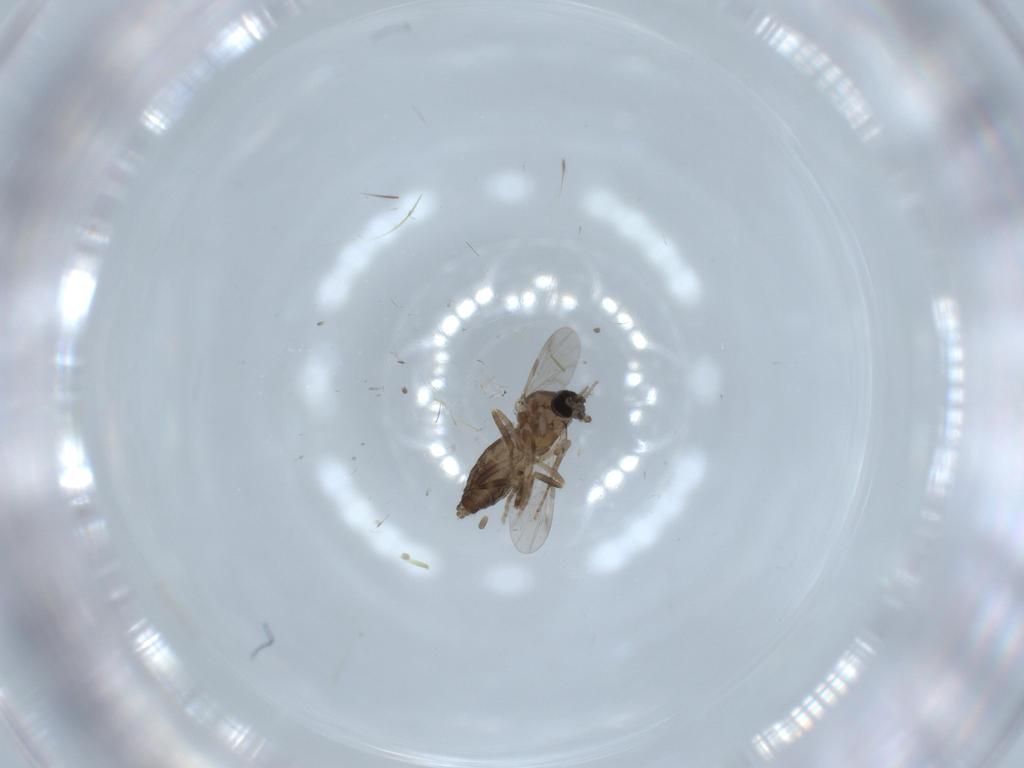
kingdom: Animalia
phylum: Arthropoda
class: Insecta
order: Diptera
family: Ceratopogonidae
